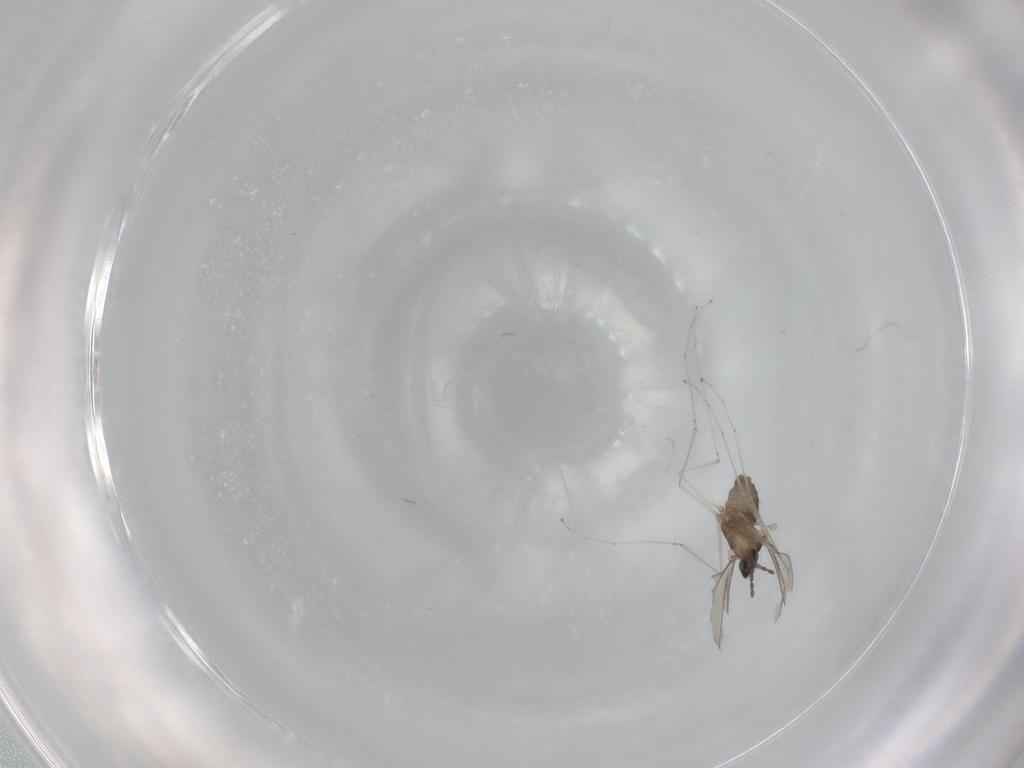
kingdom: Animalia
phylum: Arthropoda
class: Insecta
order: Diptera
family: Cecidomyiidae
